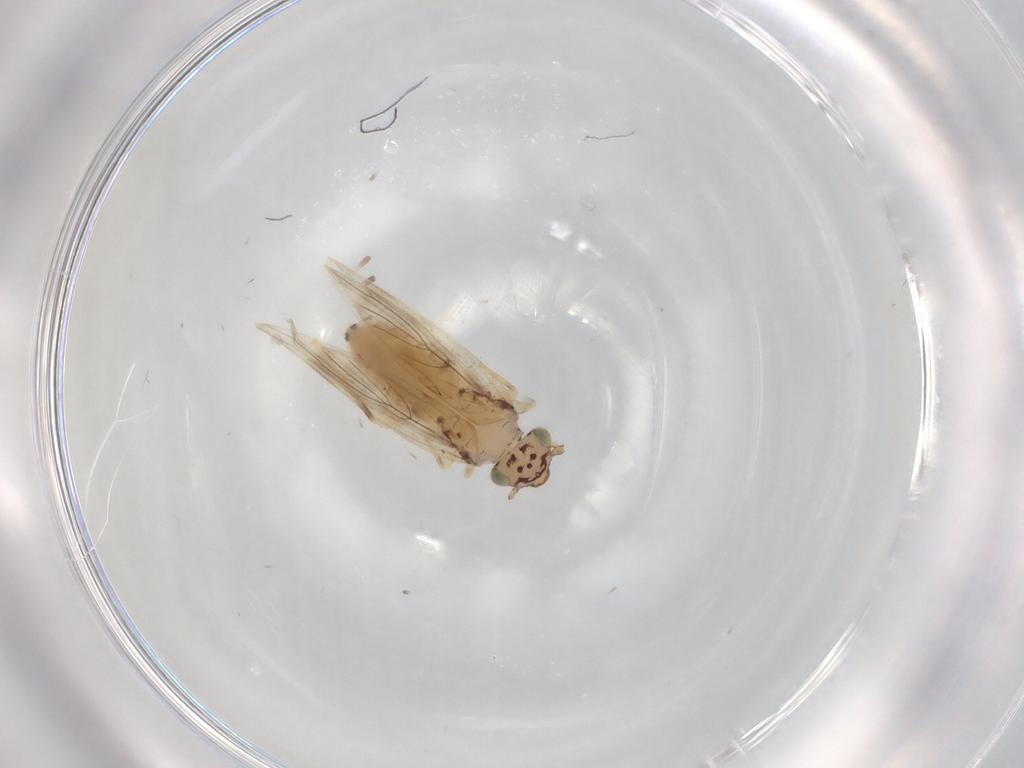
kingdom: Animalia
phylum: Arthropoda
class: Insecta
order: Psocodea
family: Lepidopsocidae
